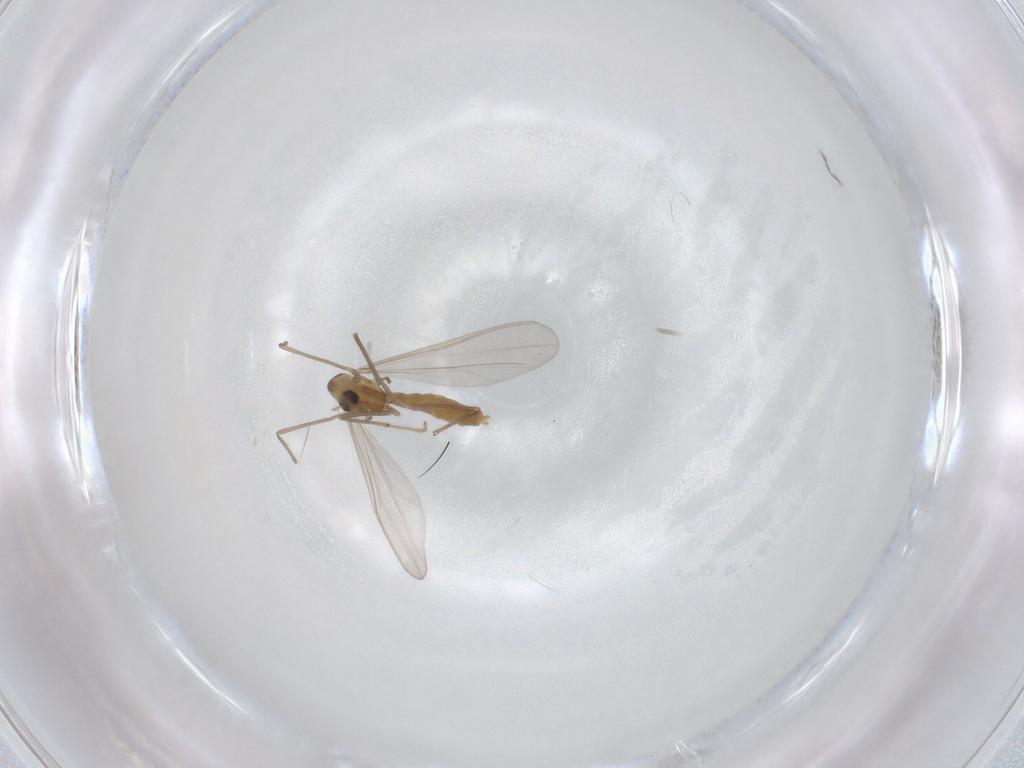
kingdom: Animalia
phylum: Arthropoda
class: Insecta
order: Diptera
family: Chironomidae
